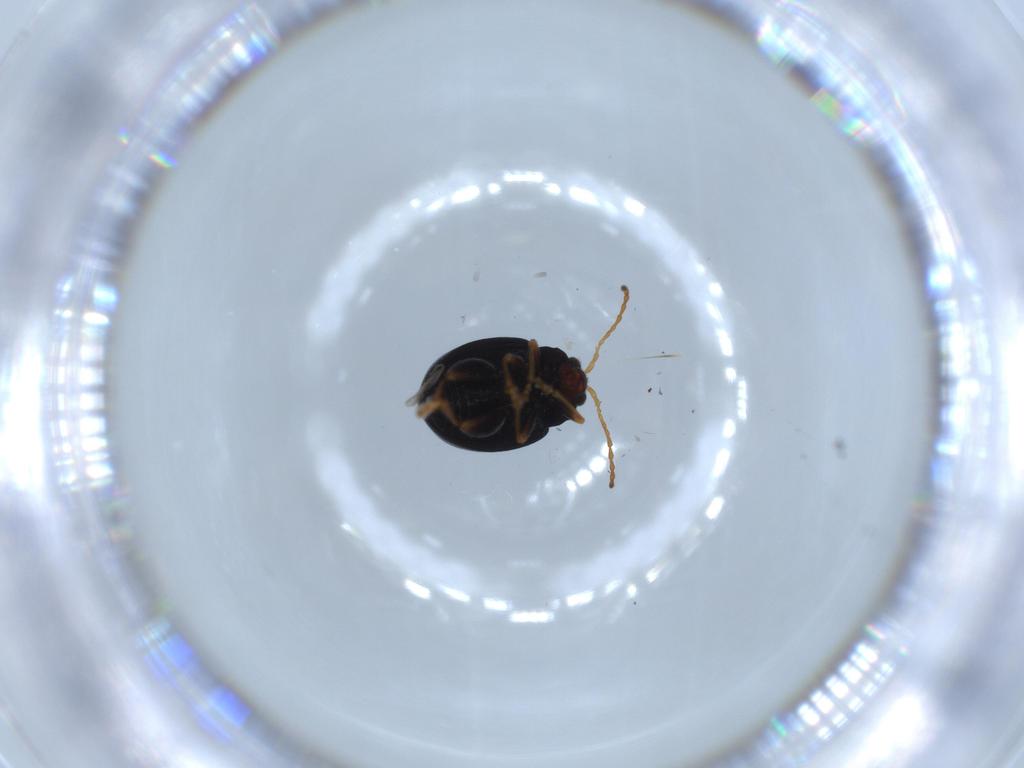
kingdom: Animalia
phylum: Arthropoda
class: Insecta
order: Coleoptera
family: Chrysomelidae
